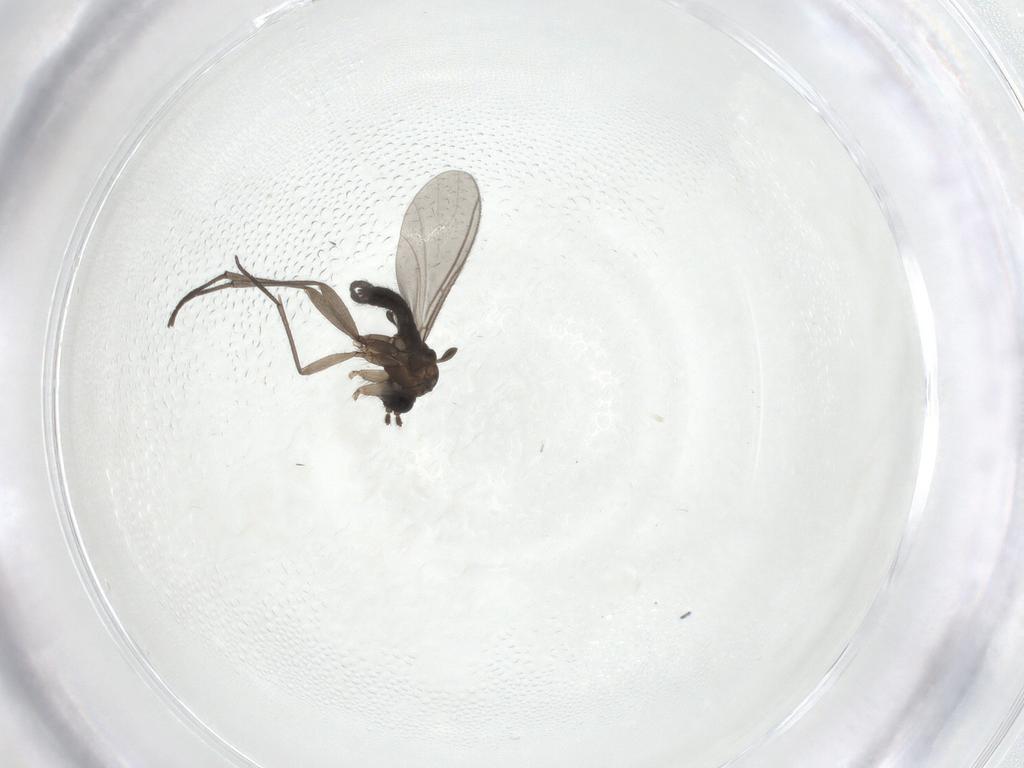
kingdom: Animalia
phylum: Arthropoda
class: Insecta
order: Diptera
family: Chironomidae
